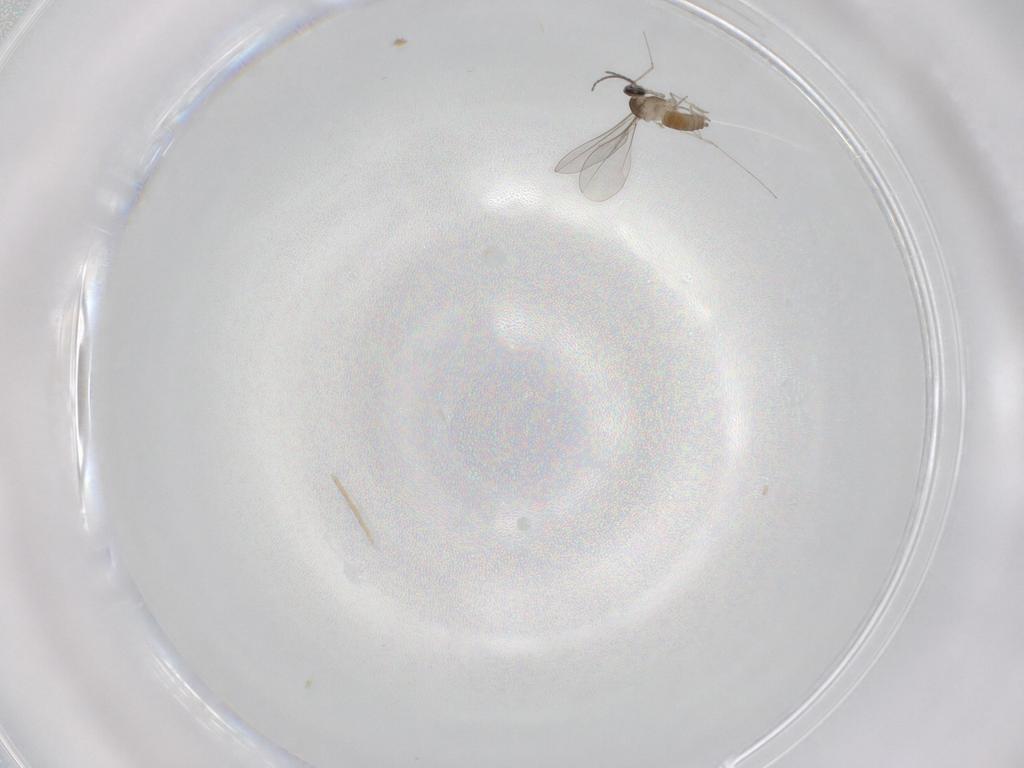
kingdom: Animalia
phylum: Arthropoda
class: Insecta
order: Diptera
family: Cecidomyiidae
